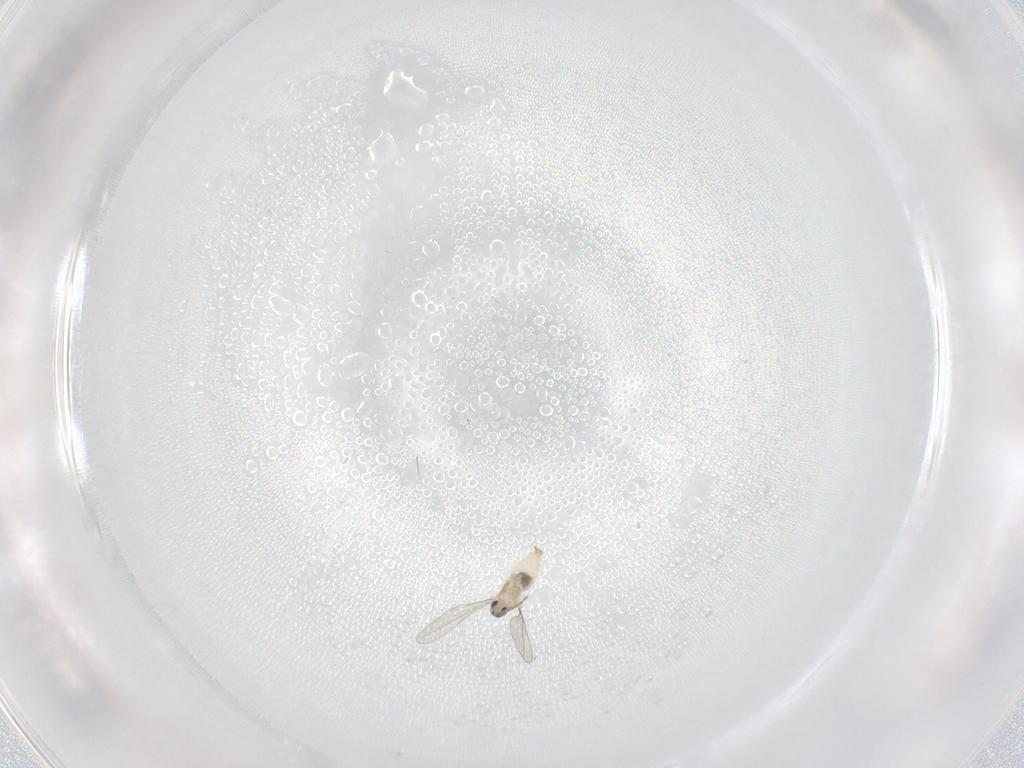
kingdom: Animalia
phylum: Arthropoda
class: Insecta
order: Diptera
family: Cecidomyiidae
